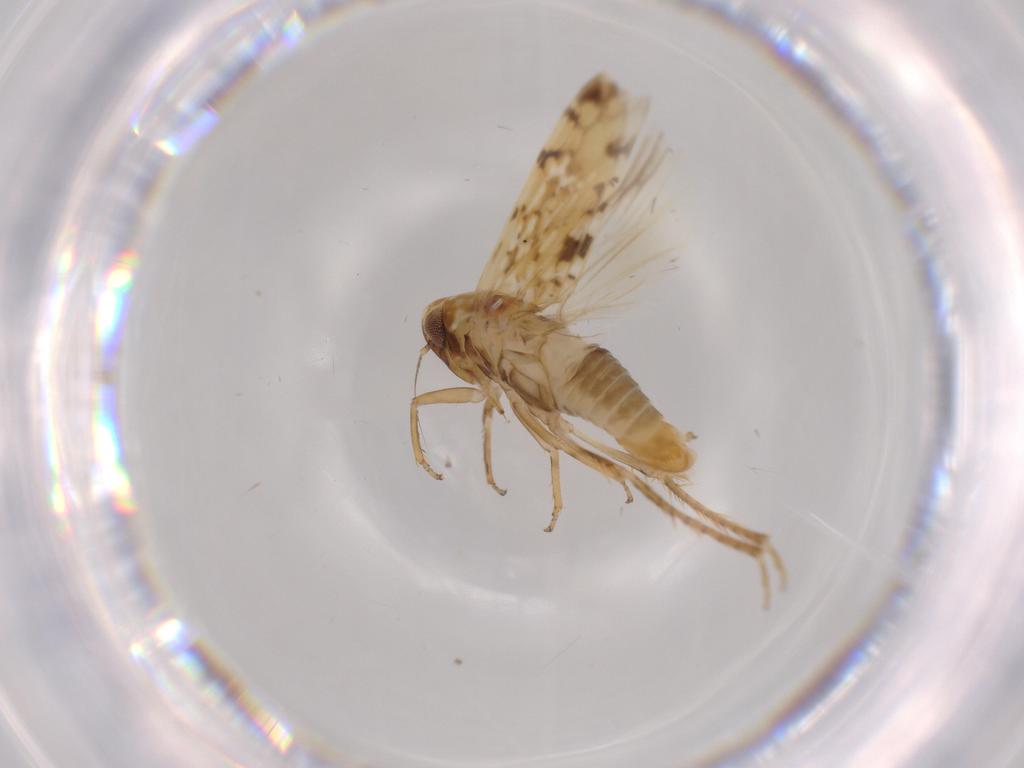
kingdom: Animalia
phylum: Arthropoda
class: Insecta
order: Hemiptera
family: Cicadellidae
